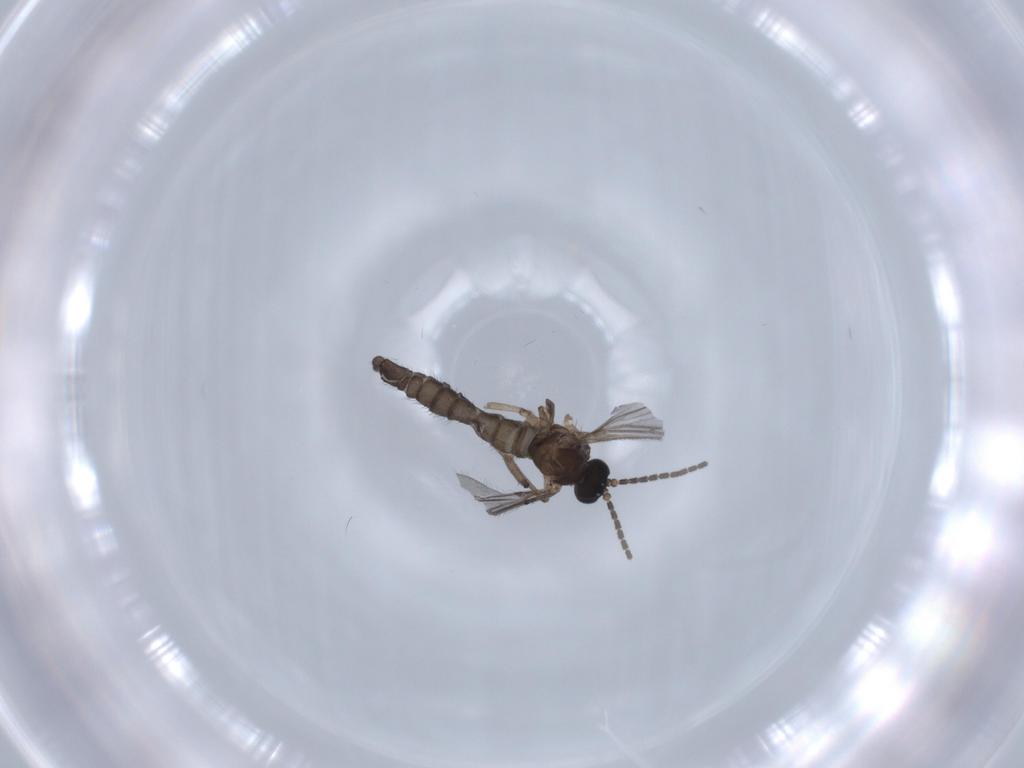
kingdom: Animalia
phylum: Arthropoda
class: Insecta
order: Diptera
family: Sciaridae
